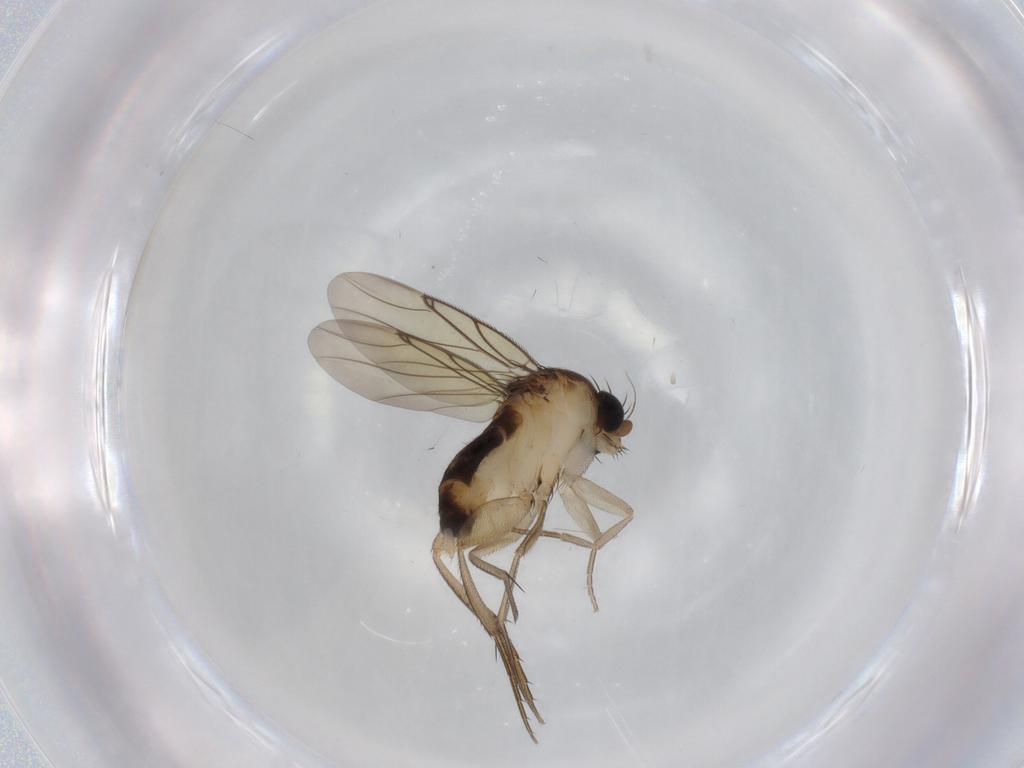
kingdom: Animalia
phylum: Arthropoda
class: Insecta
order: Diptera
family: Cecidomyiidae
